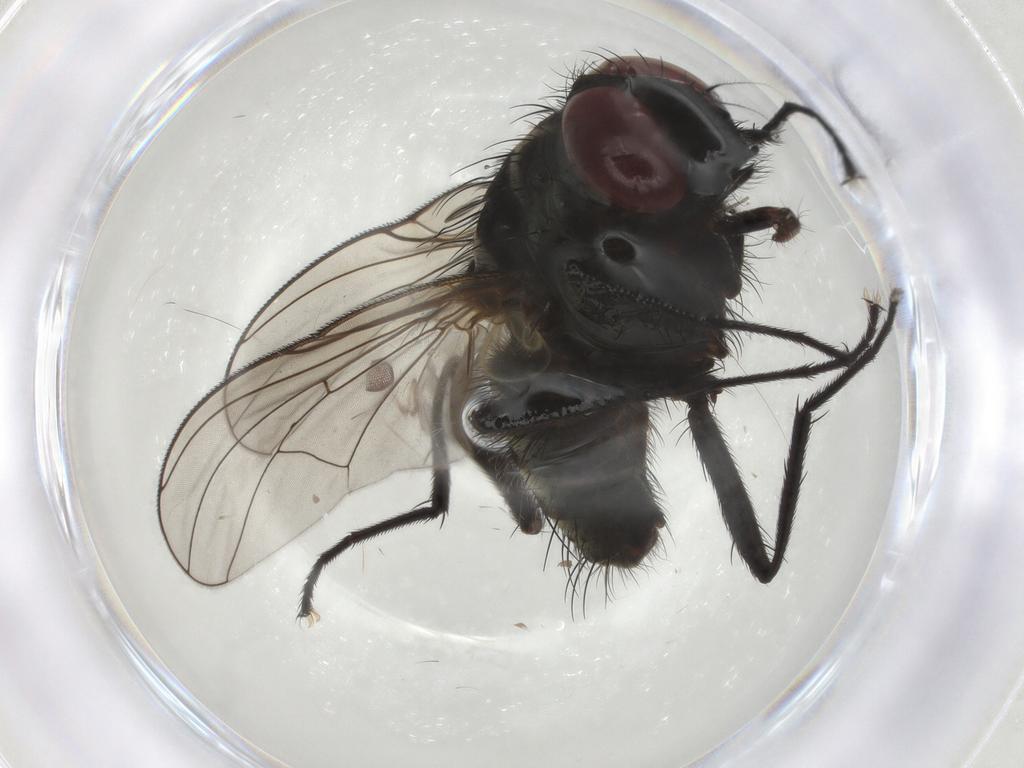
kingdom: Animalia
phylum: Arthropoda
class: Insecta
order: Diptera
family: Muscidae
